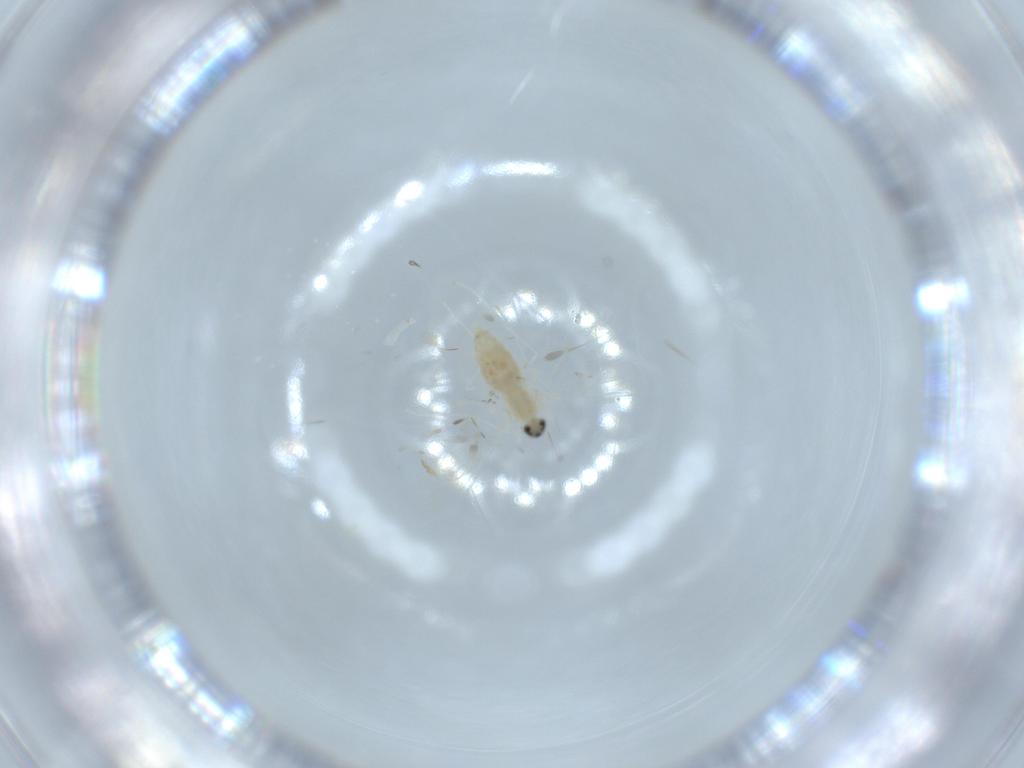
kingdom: Animalia
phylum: Arthropoda
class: Insecta
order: Diptera
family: Cecidomyiidae
